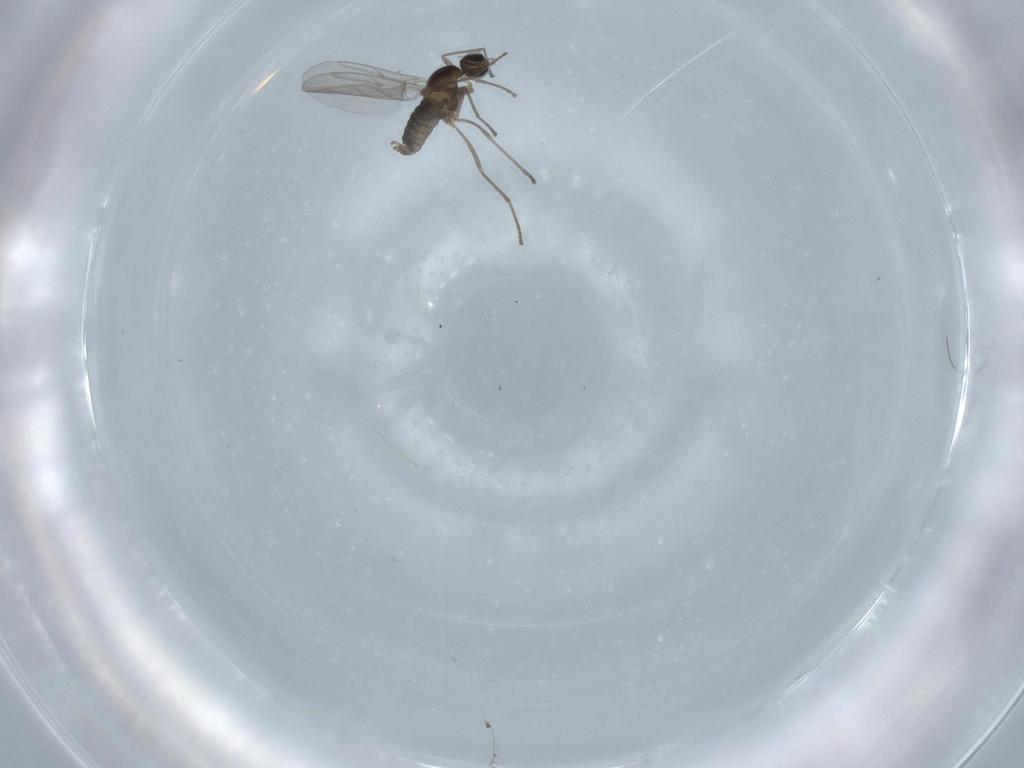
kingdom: Animalia
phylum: Arthropoda
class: Insecta
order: Diptera
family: Cecidomyiidae
